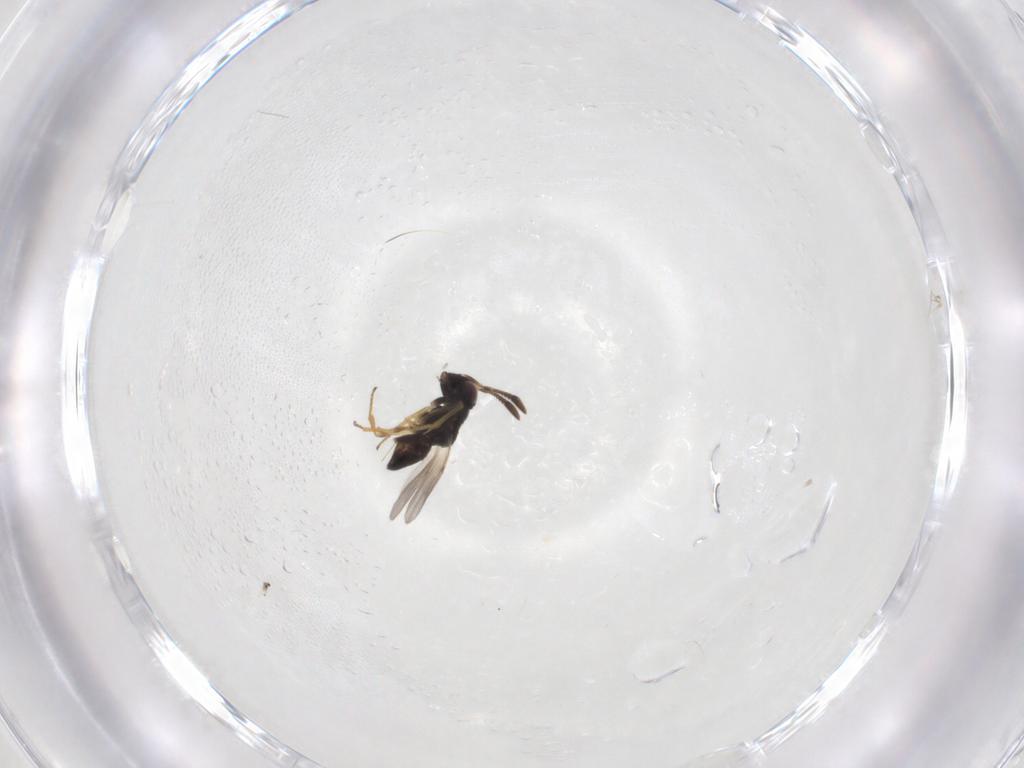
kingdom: Animalia
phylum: Arthropoda
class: Insecta
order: Hymenoptera
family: Encyrtidae
